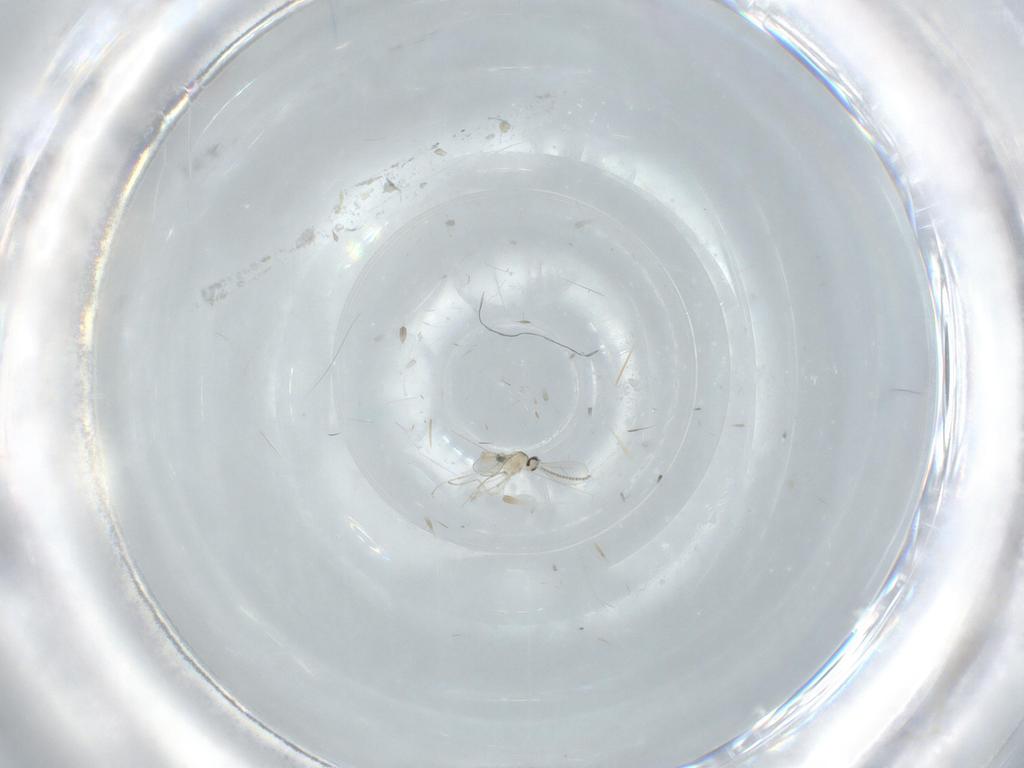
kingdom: Animalia
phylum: Arthropoda
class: Insecta
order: Diptera
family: Cecidomyiidae
